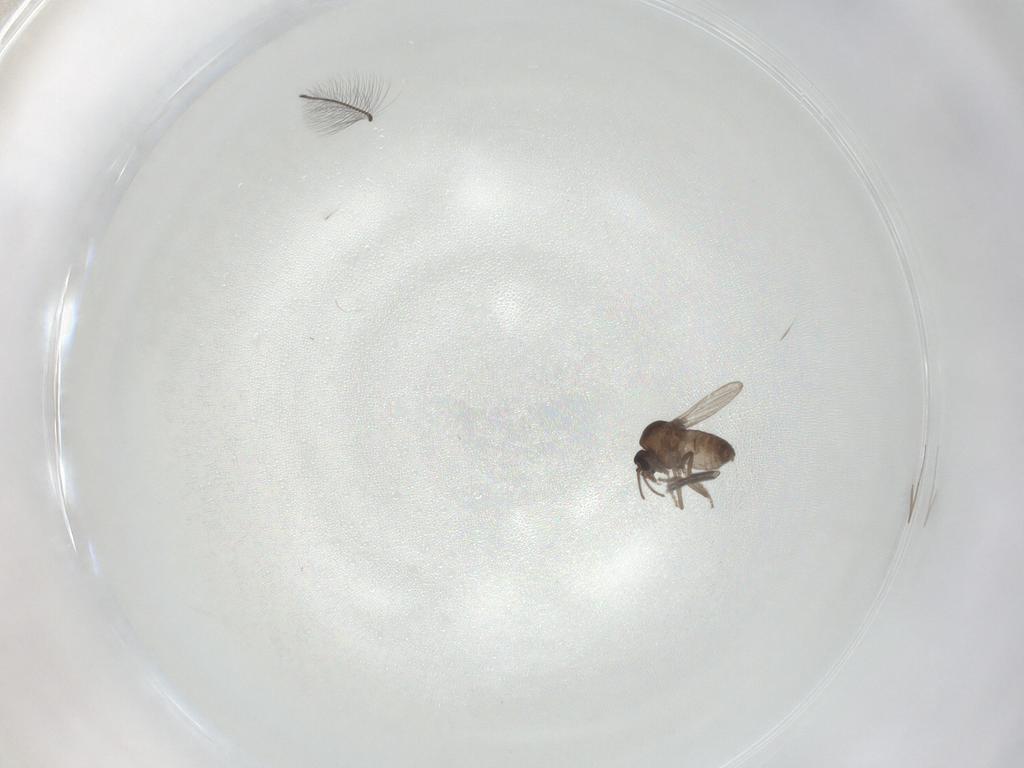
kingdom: Animalia
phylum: Arthropoda
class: Insecta
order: Diptera
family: Ceratopogonidae
